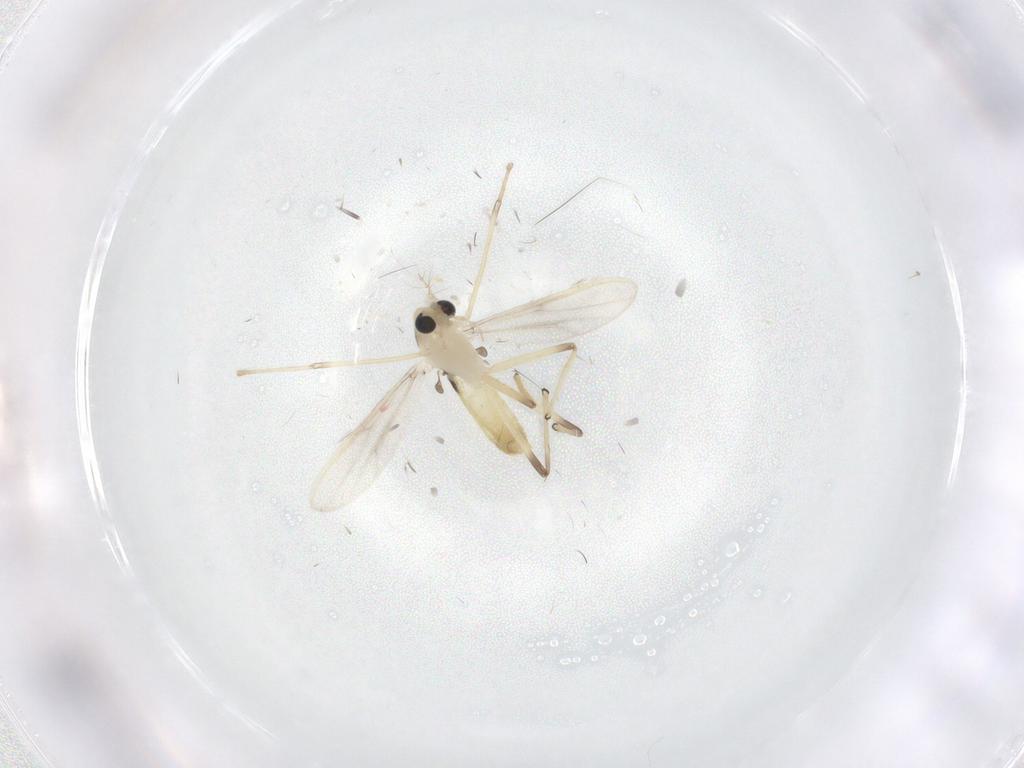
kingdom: Animalia
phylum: Arthropoda
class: Insecta
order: Diptera
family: Chironomidae
